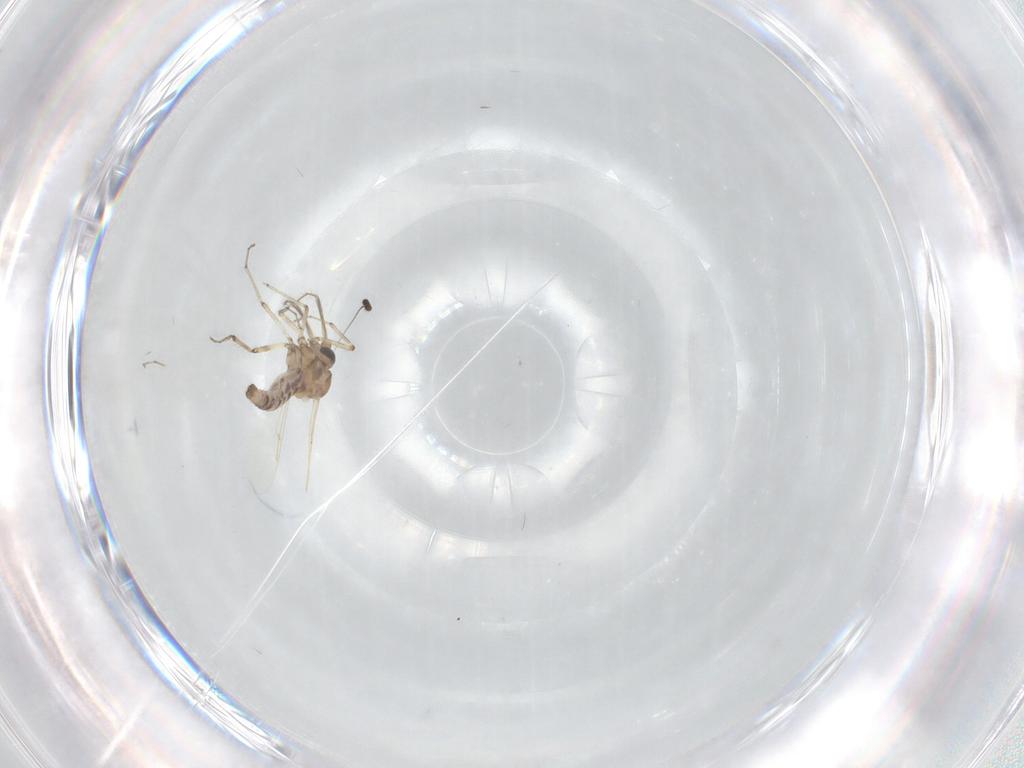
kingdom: Animalia
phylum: Arthropoda
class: Insecta
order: Diptera
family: Ceratopogonidae
